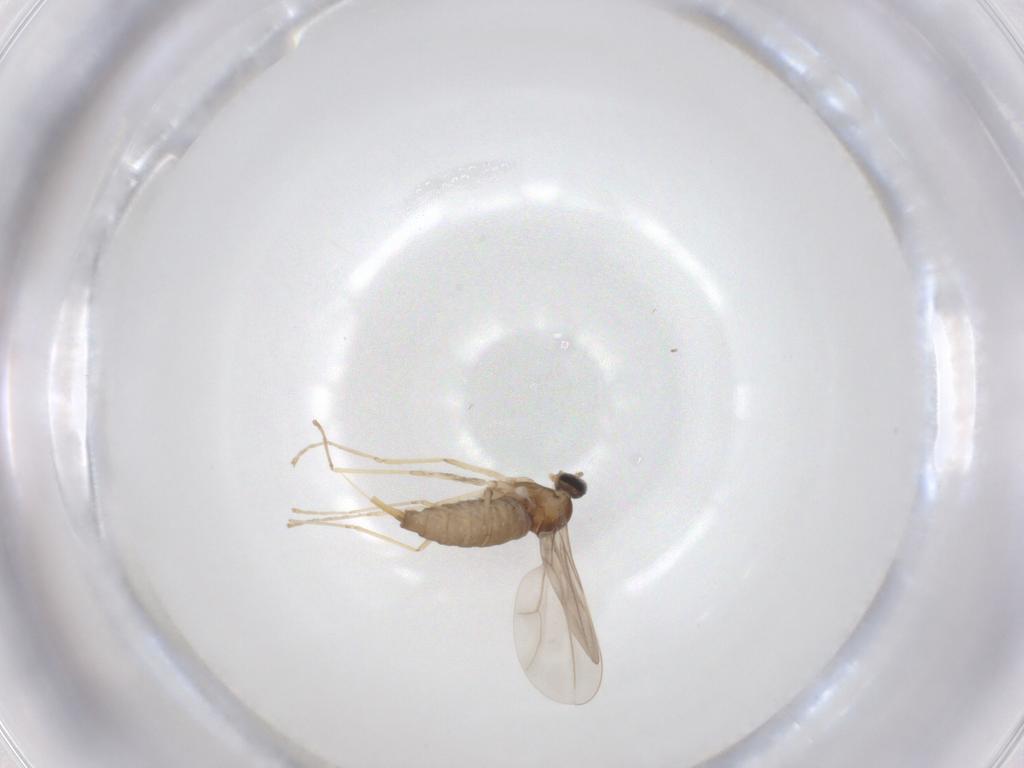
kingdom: Animalia
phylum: Arthropoda
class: Insecta
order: Diptera
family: Cecidomyiidae
